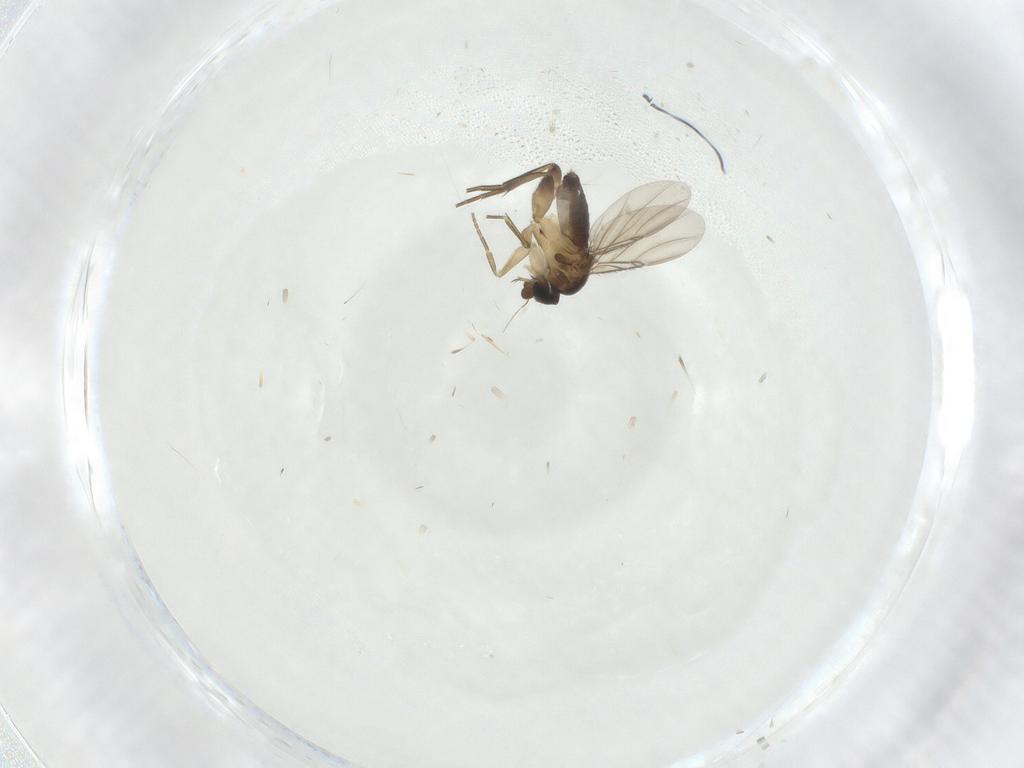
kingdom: Animalia
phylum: Arthropoda
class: Insecta
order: Diptera
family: Phoridae
